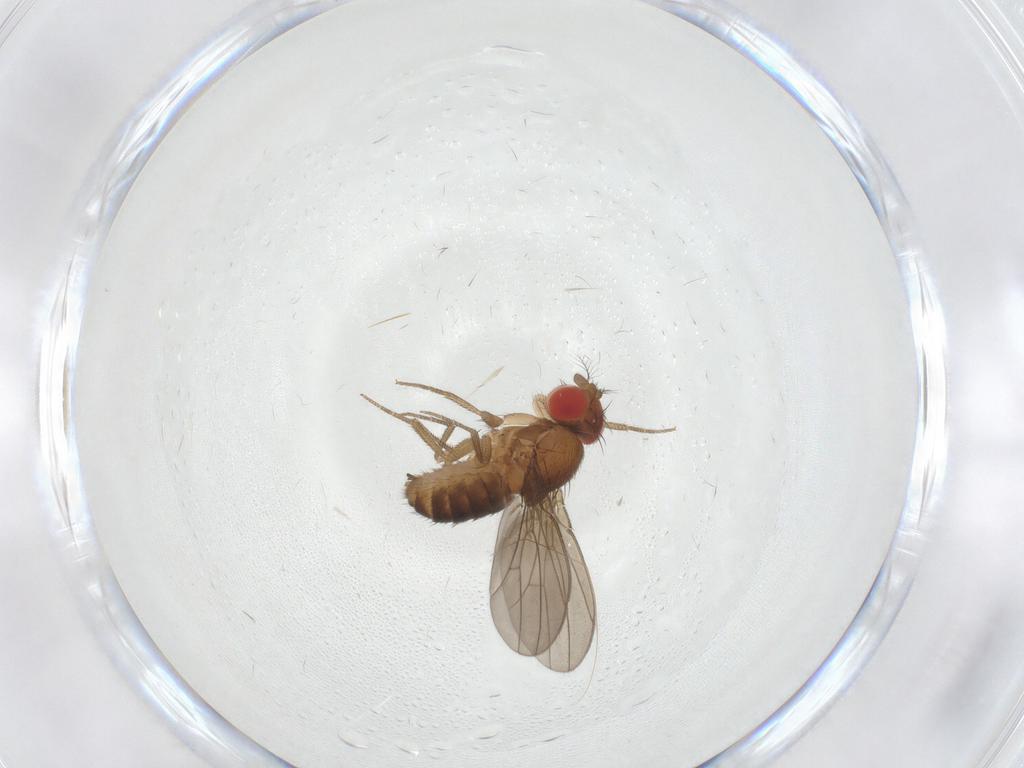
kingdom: Animalia
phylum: Arthropoda
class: Insecta
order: Diptera
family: Drosophilidae
